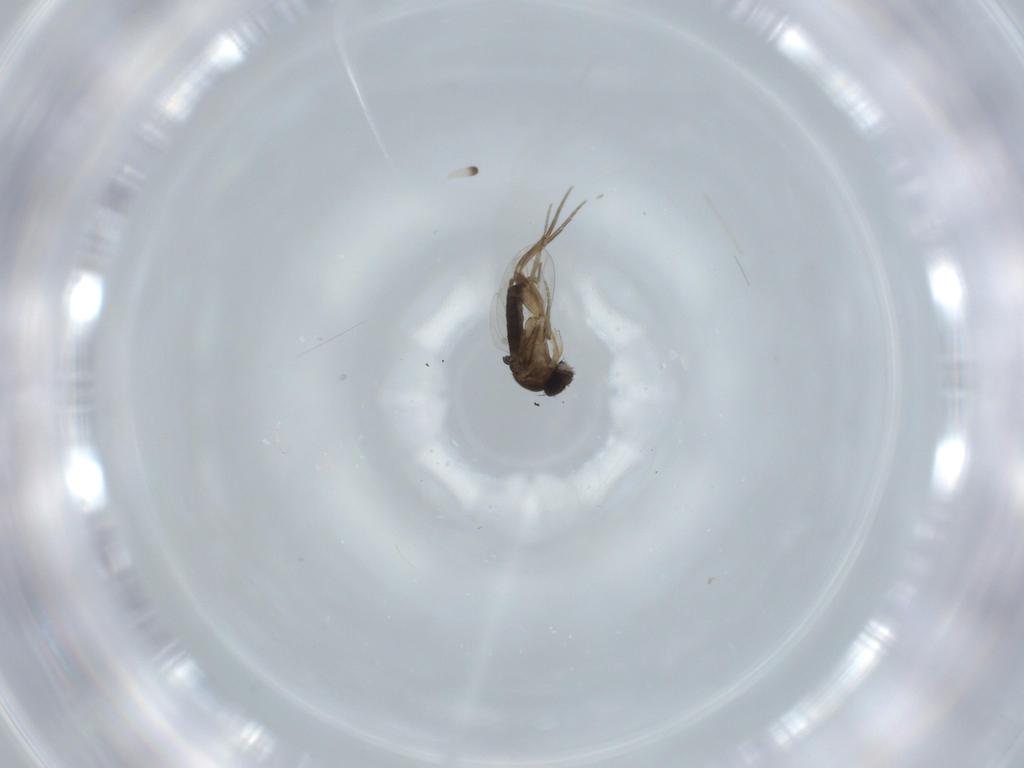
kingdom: Animalia
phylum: Arthropoda
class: Insecta
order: Diptera
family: Phoridae
